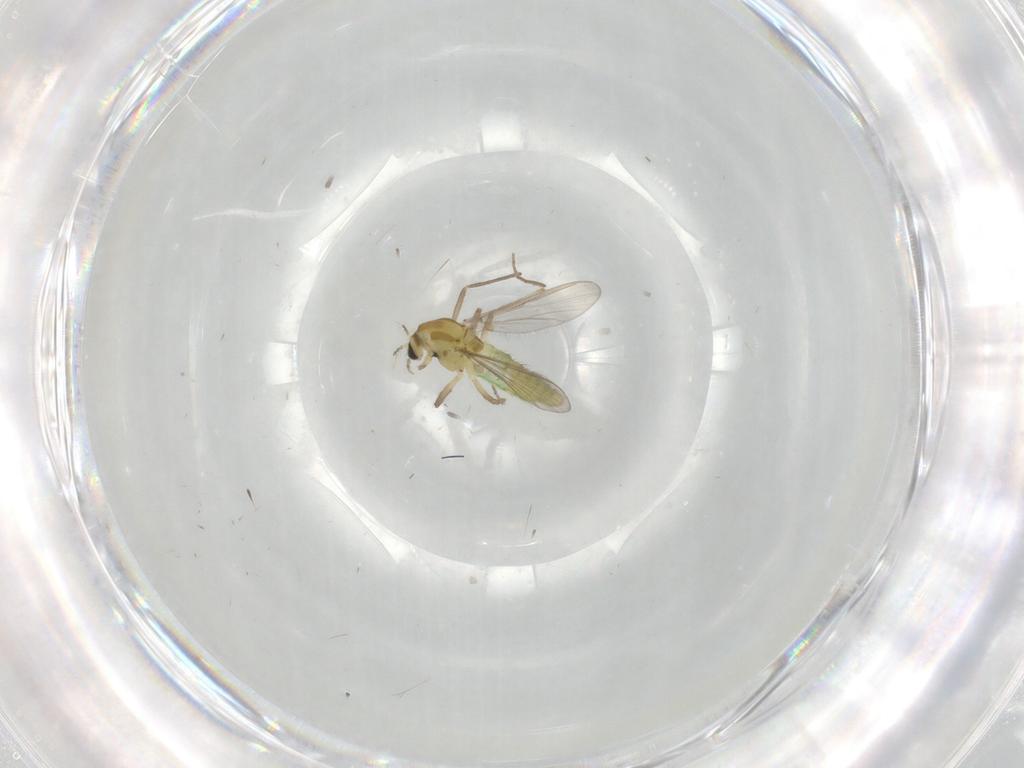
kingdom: Animalia
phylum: Arthropoda
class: Insecta
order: Diptera
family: Chironomidae
